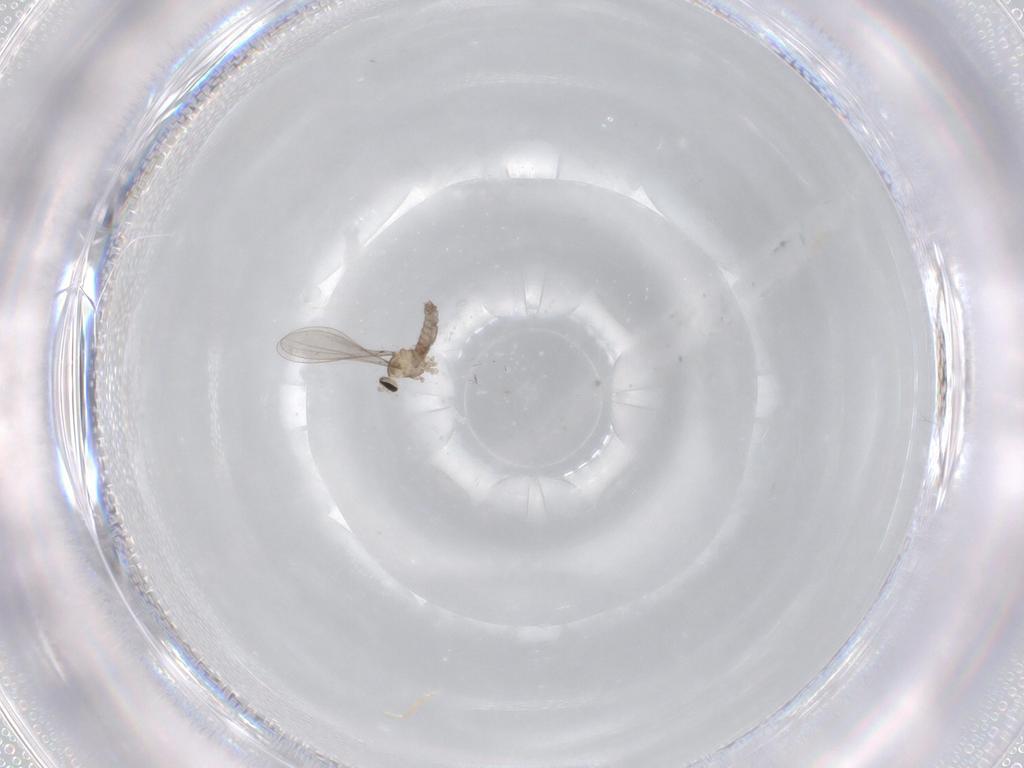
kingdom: Animalia
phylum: Arthropoda
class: Insecta
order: Diptera
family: Cecidomyiidae
